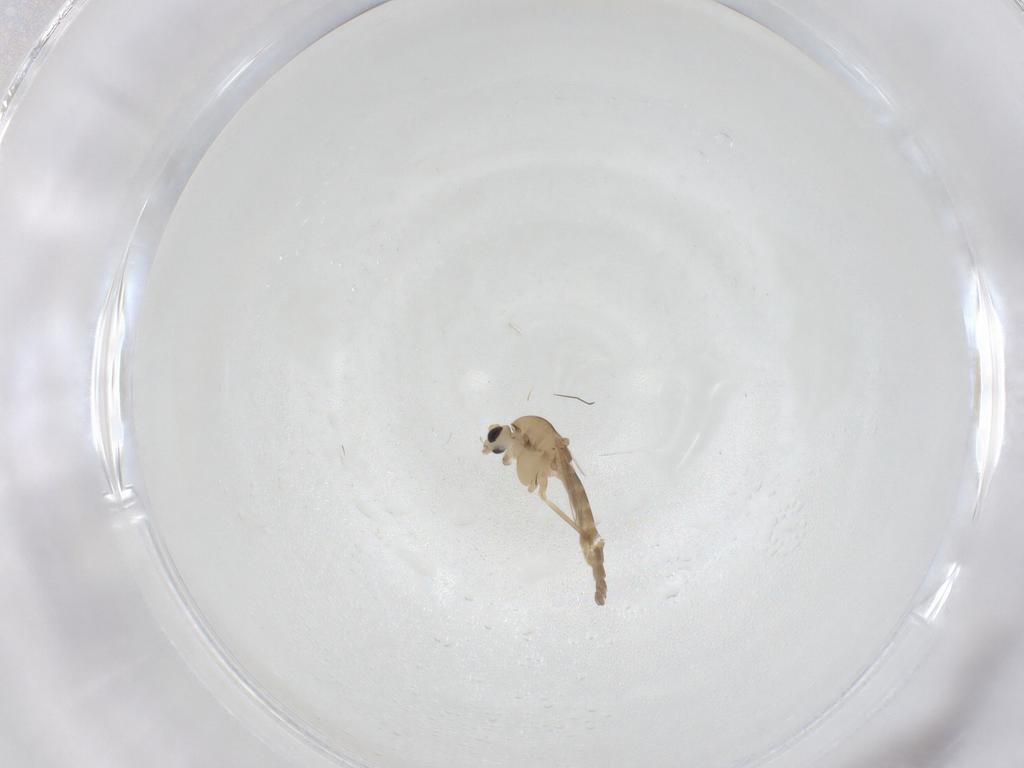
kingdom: Animalia
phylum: Arthropoda
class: Insecta
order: Diptera
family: Chironomidae
